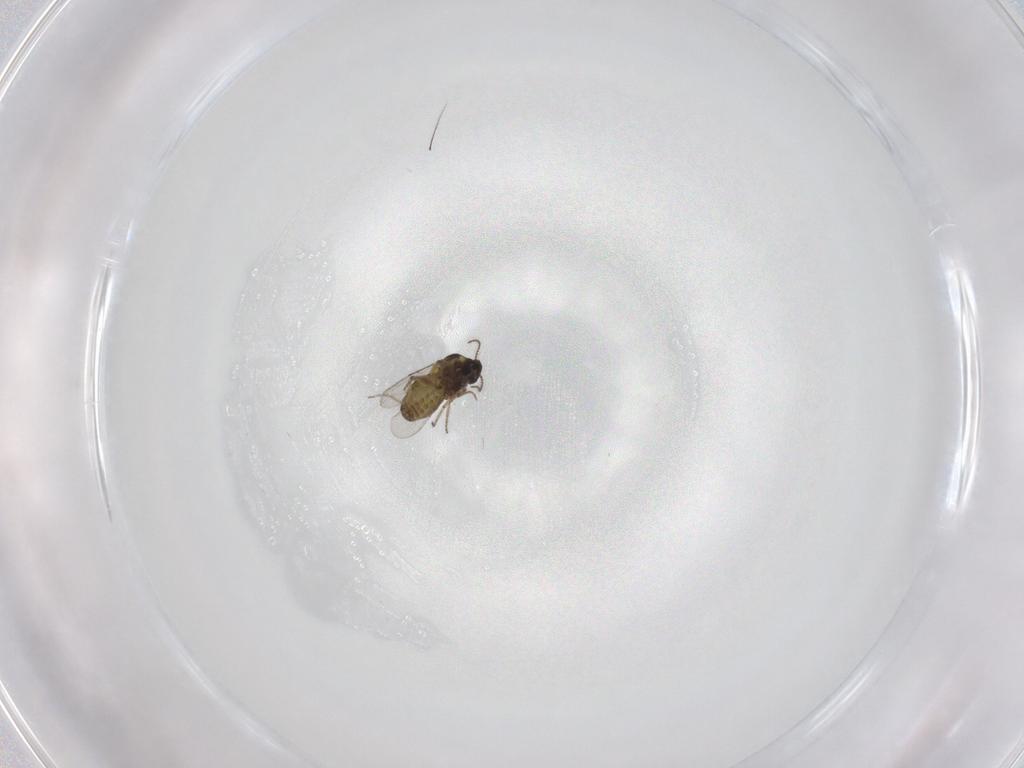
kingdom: Animalia
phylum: Arthropoda
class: Insecta
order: Diptera
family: Ceratopogonidae
